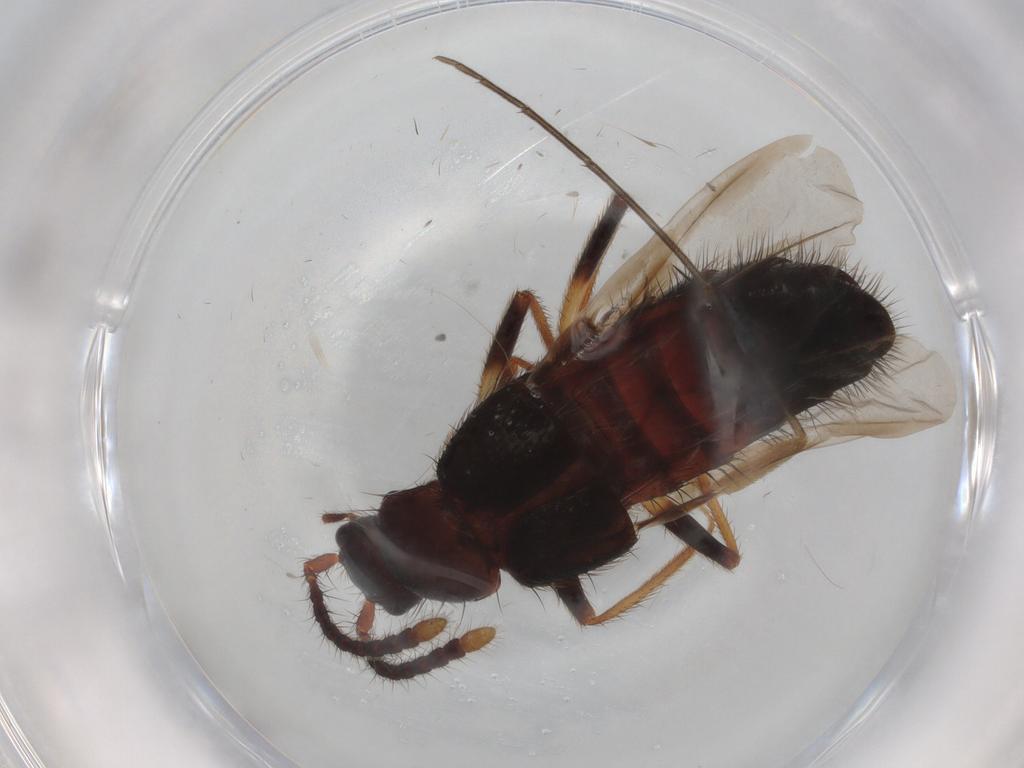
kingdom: Animalia
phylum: Arthropoda
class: Insecta
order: Coleoptera
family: Staphylinidae
